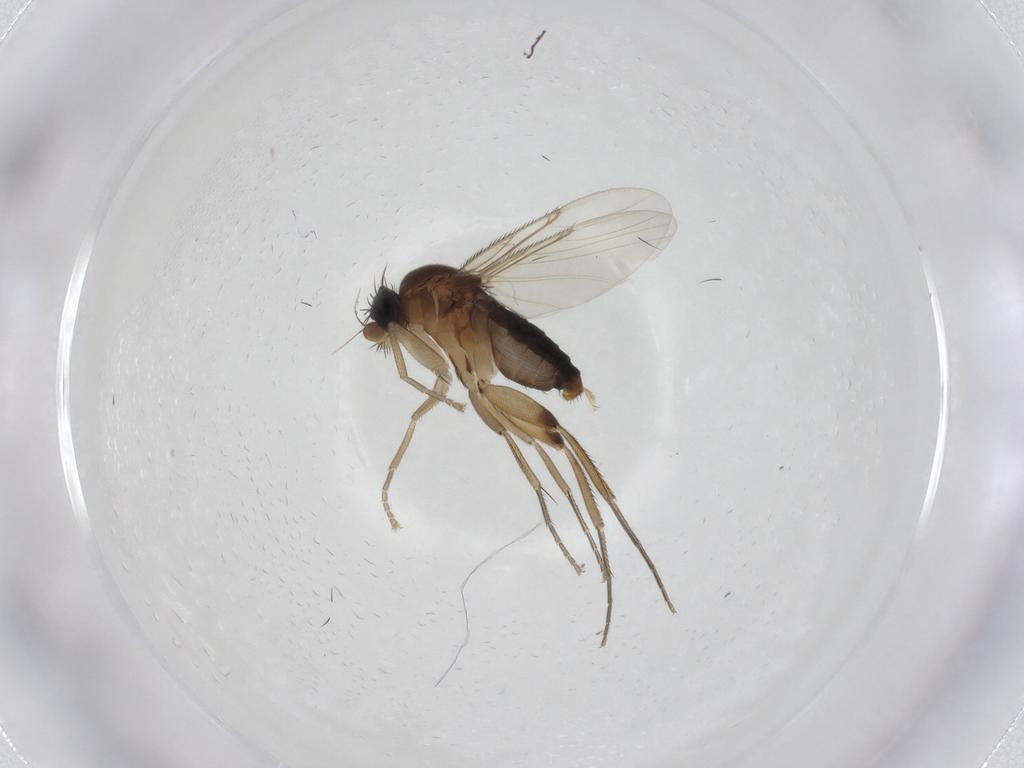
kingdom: Animalia
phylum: Arthropoda
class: Insecta
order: Diptera
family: Phoridae
